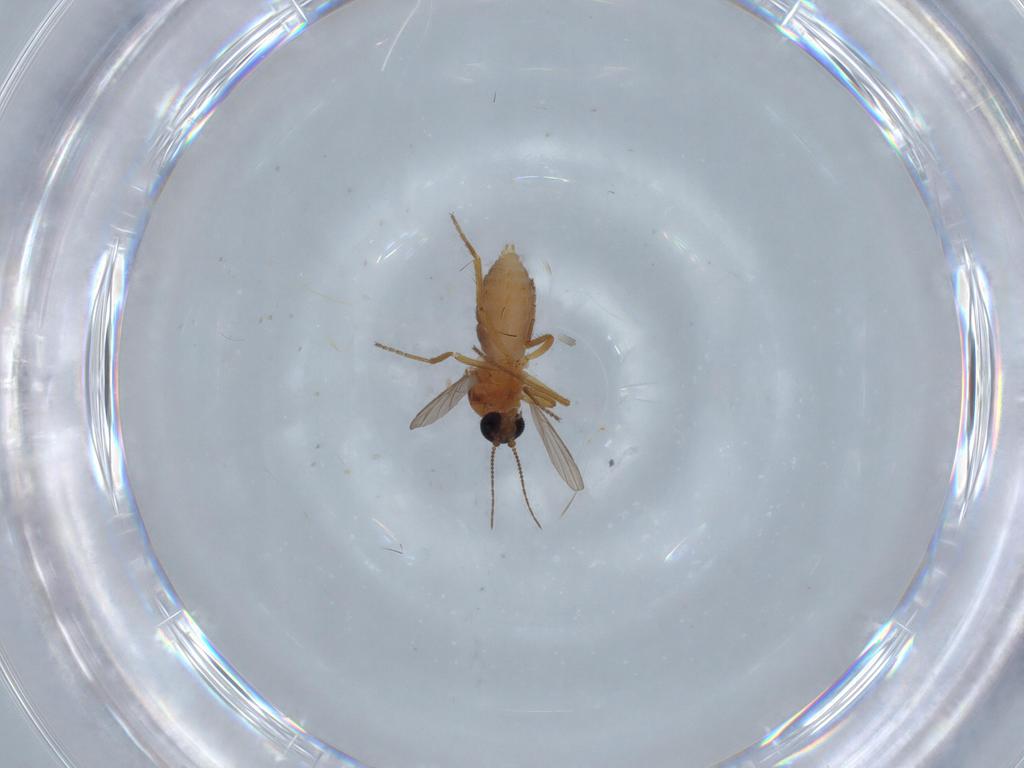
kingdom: Animalia
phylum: Arthropoda
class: Insecta
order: Diptera
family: Ceratopogonidae
